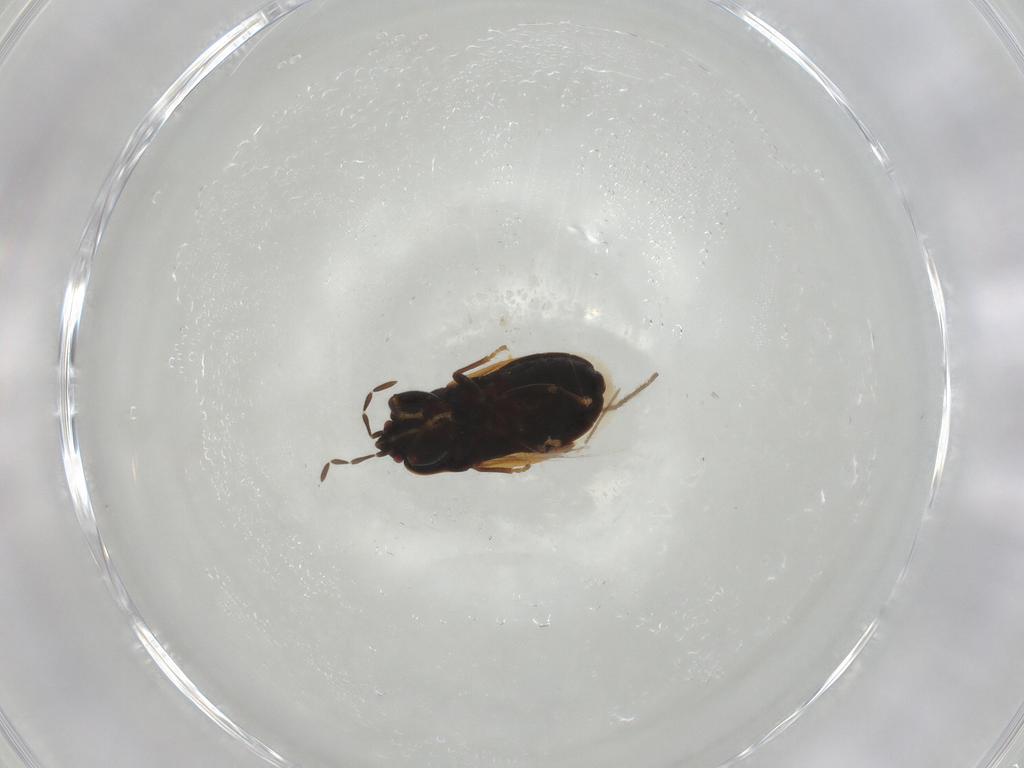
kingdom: Animalia
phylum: Arthropoda
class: Insecta
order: Hemiptera
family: Rhyparochromidae
